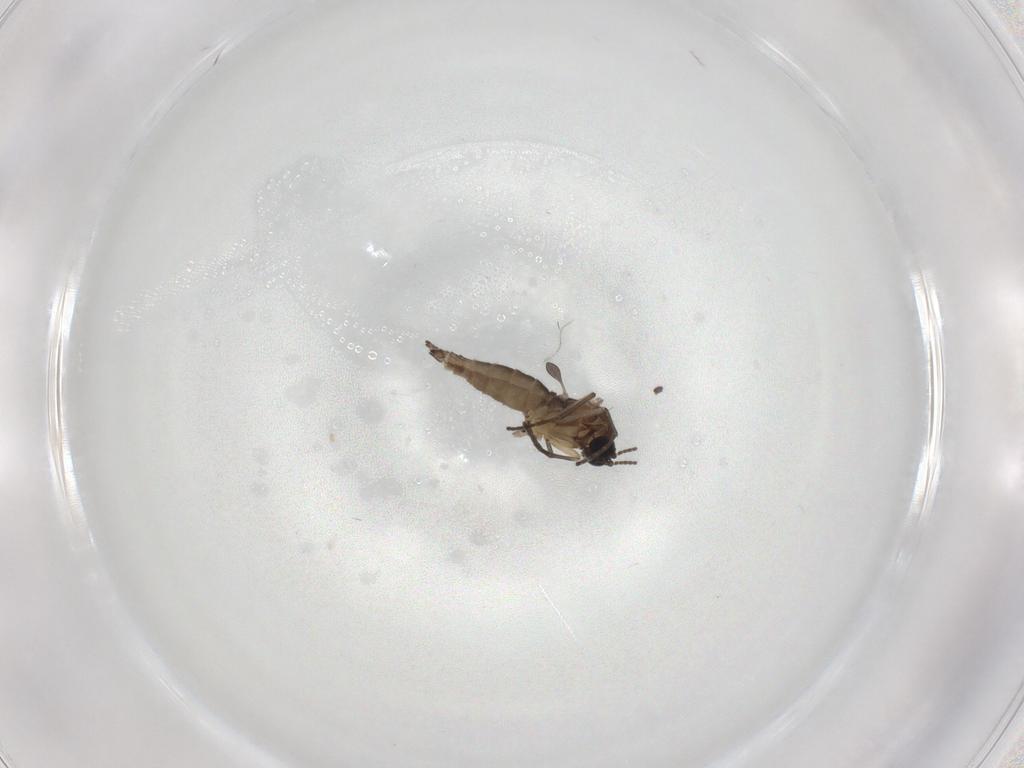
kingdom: Animalia
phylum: Arthropoda
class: Insecta
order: Diptera
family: Sciaridae
